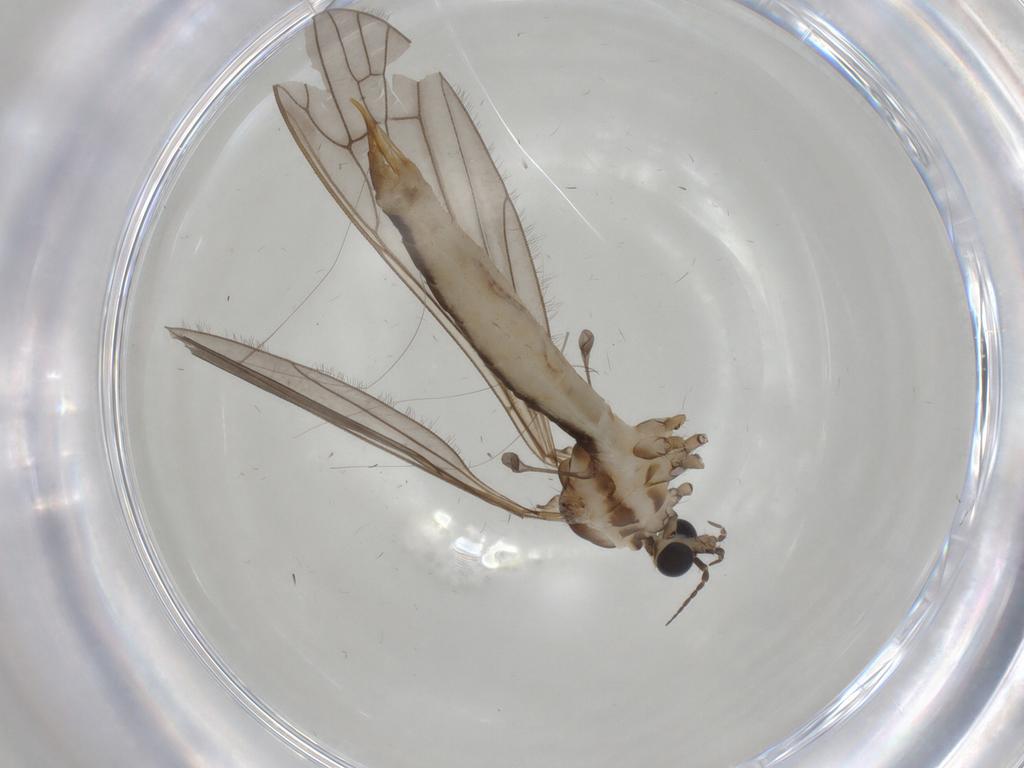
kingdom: Animalia
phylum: Arthropoda
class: Insecta
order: Diptera
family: Limoniidae
